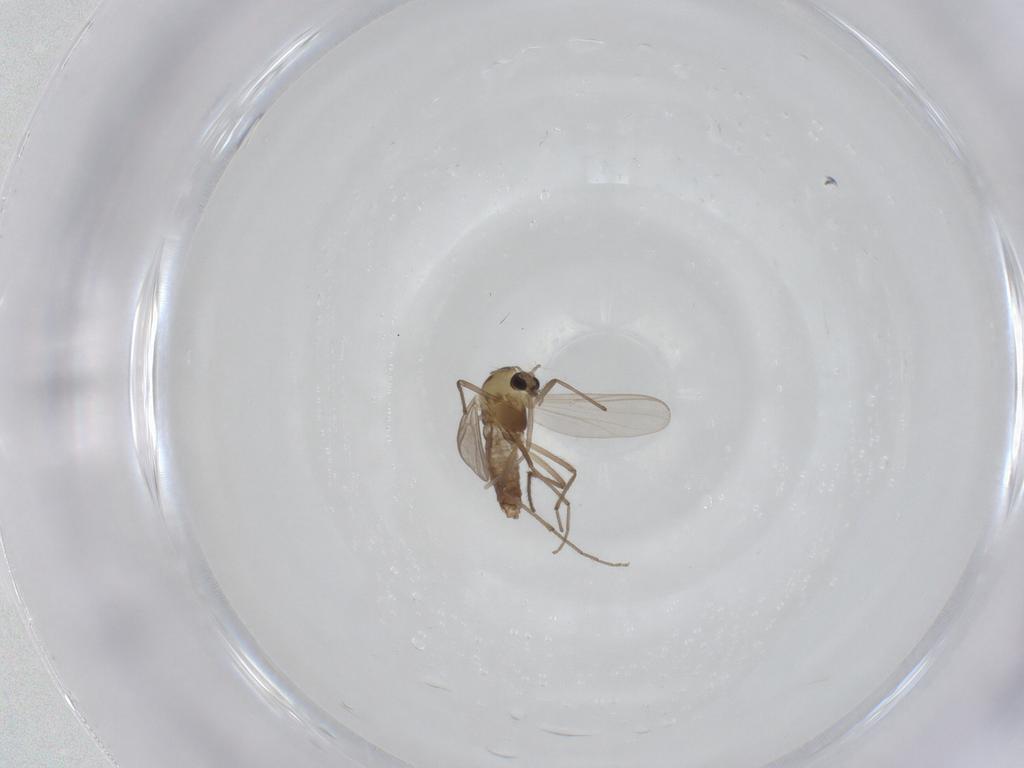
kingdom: Animalia
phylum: Arthropoda
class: Insecta
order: Diptera
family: Chironomidae
